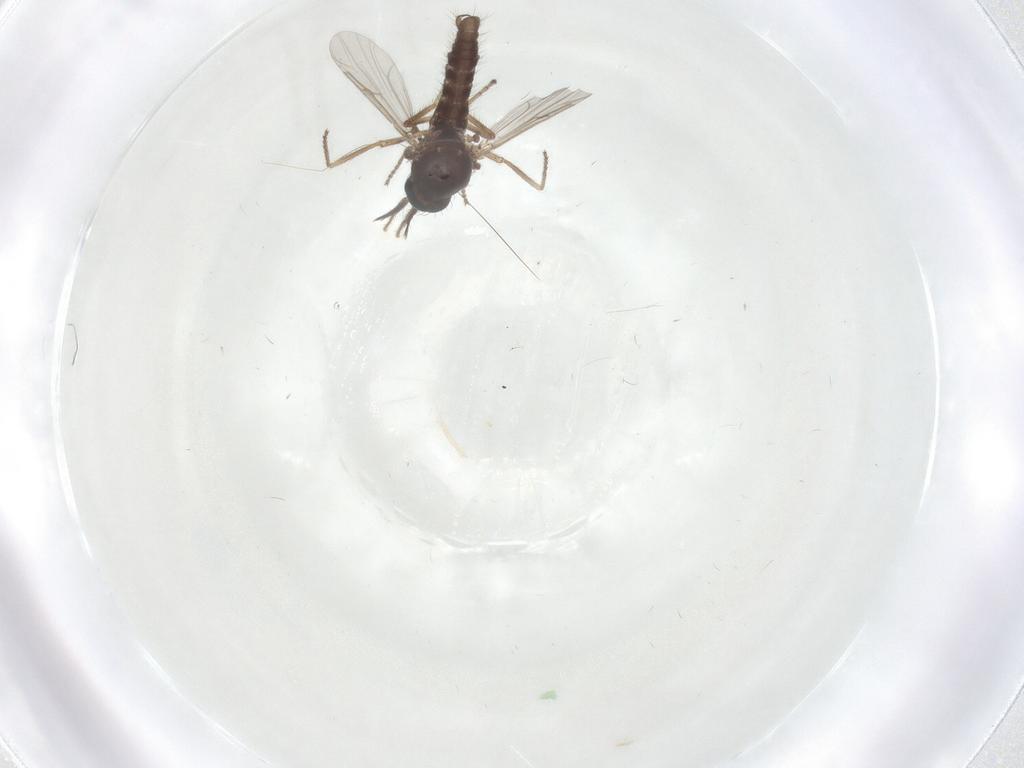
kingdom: Animalia
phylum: Arthropoda
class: Insecta
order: Diptera
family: Ceratopogonidae
